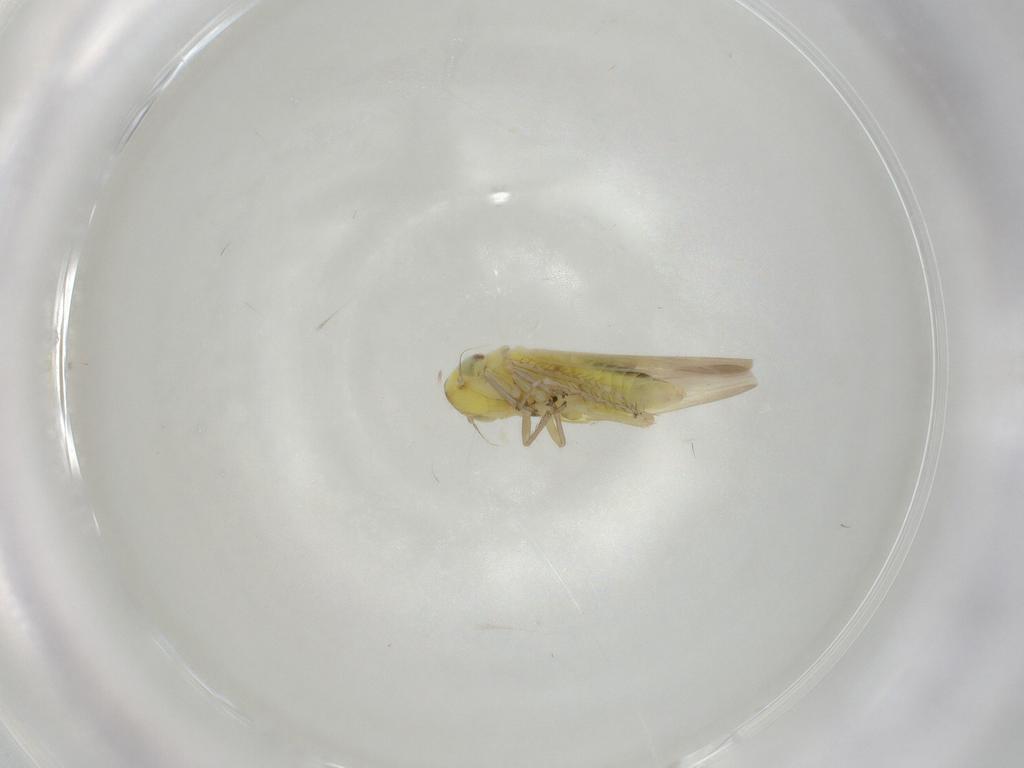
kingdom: Animalia
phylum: Arthropoda
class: Insecta
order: Hemiptera
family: Cicadellidae
